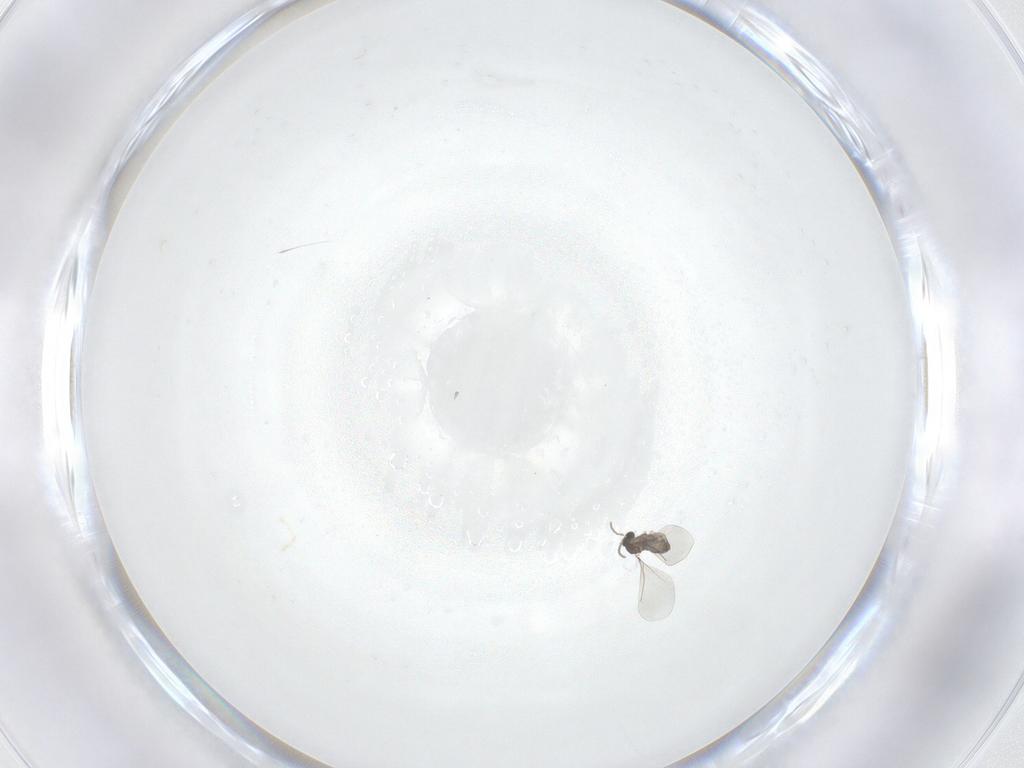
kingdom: Animalia
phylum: Arthropoda
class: Insecta
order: Diptera
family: Cecidomyiidae
